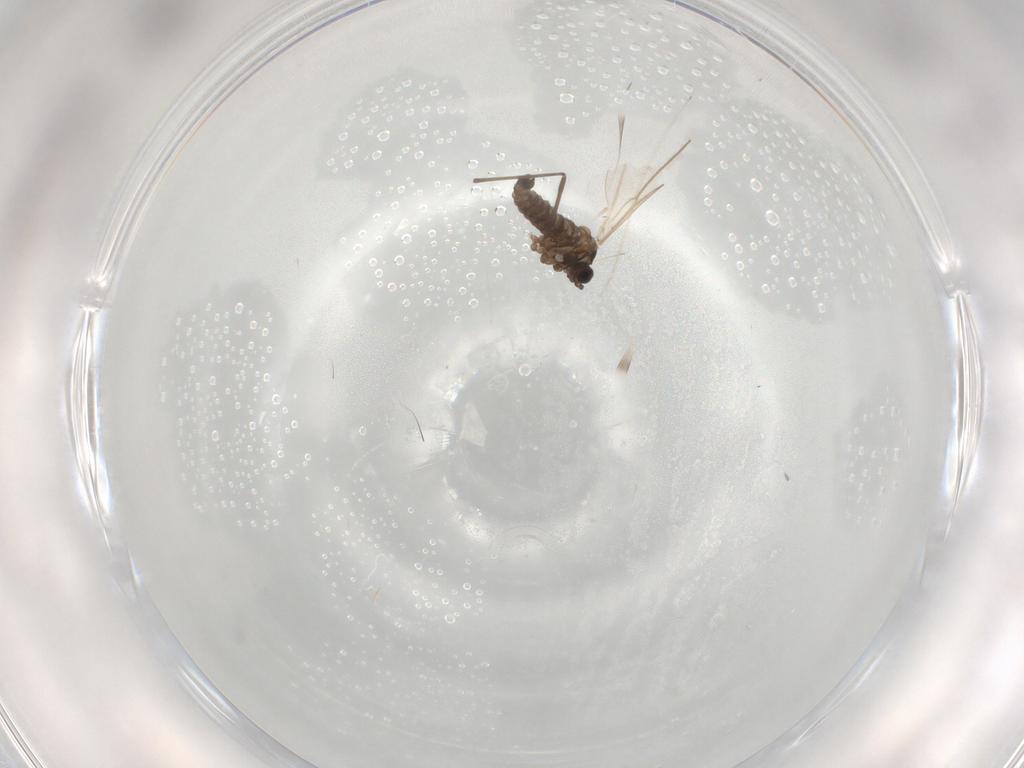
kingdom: Animalia
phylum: Arthropoda
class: Insecta
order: Diptera
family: Cecidomyiidae
